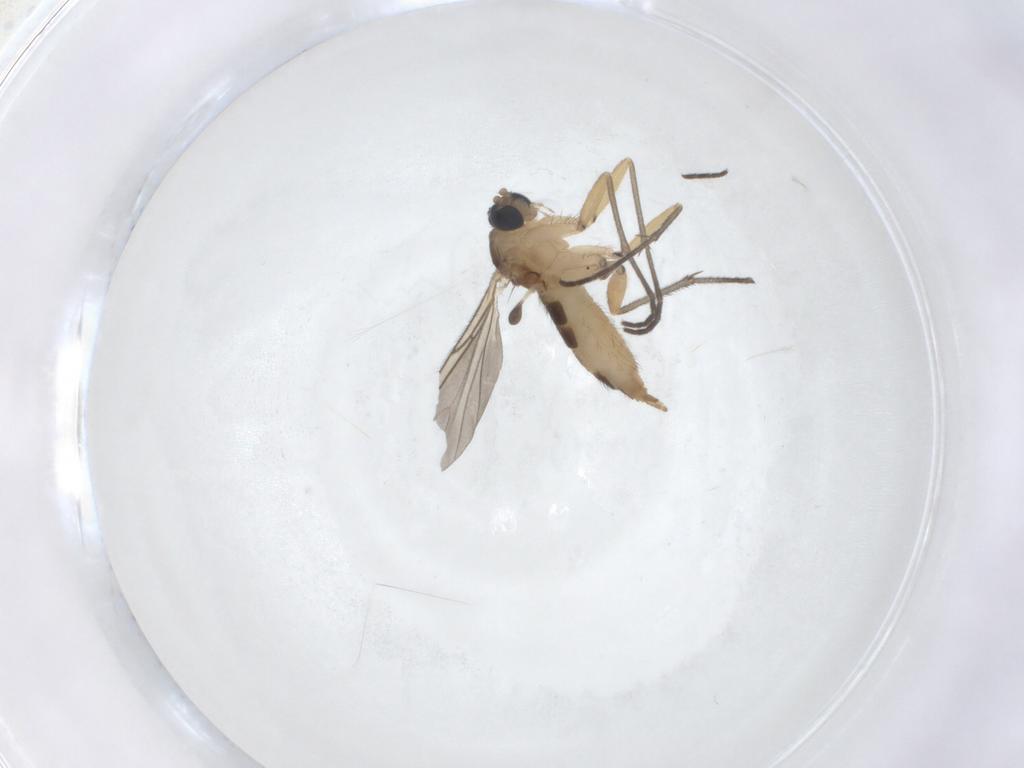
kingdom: Animalia
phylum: Arthropoda
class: Insecta
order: Diptera
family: Sciaridae
